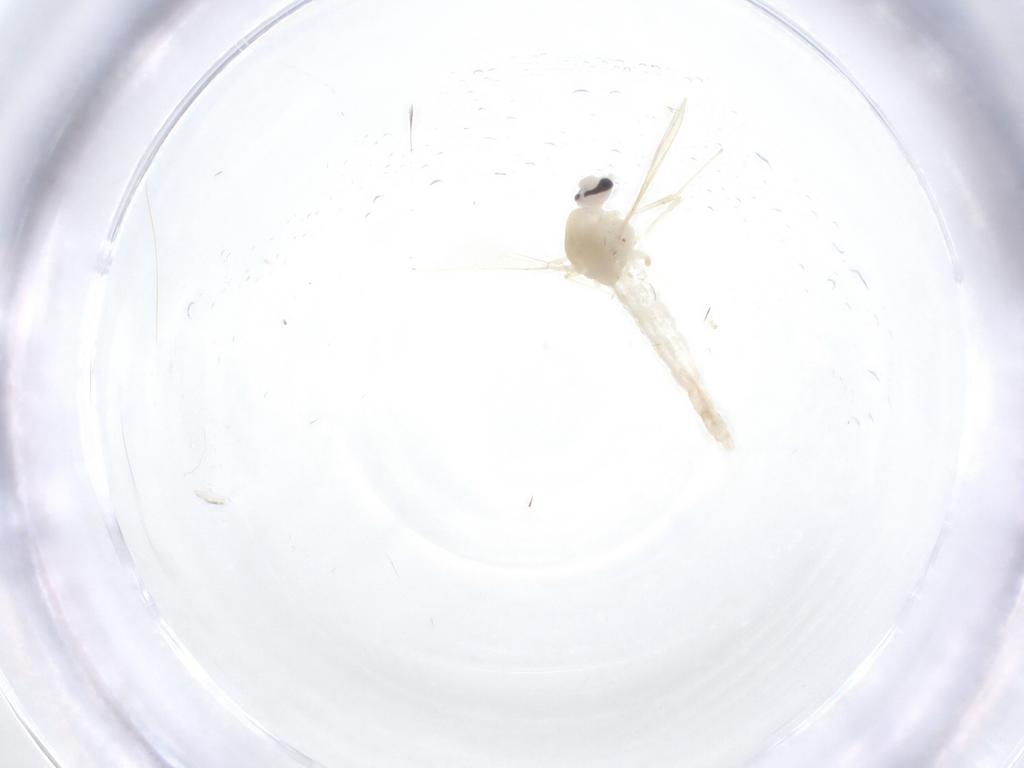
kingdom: Animalia
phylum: Arthropoda
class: Insecta
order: Diptera
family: Chironomidae
